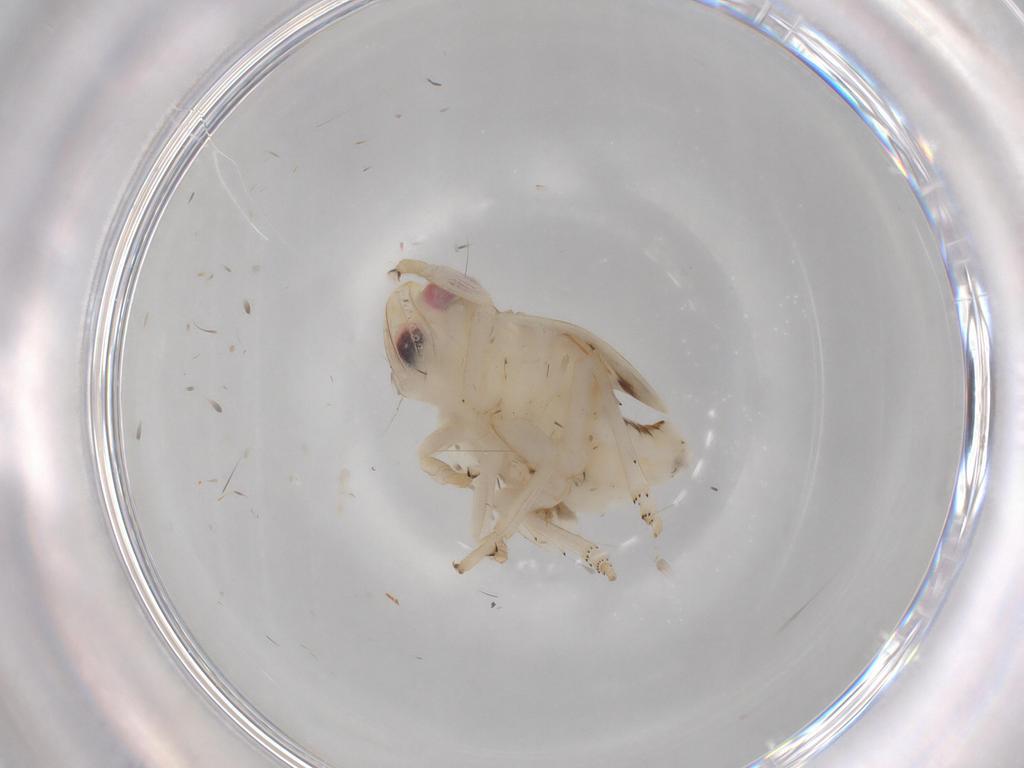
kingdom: Animalia
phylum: Arthropoda
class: Insecta
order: Hemiptera
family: Nogodinidae
